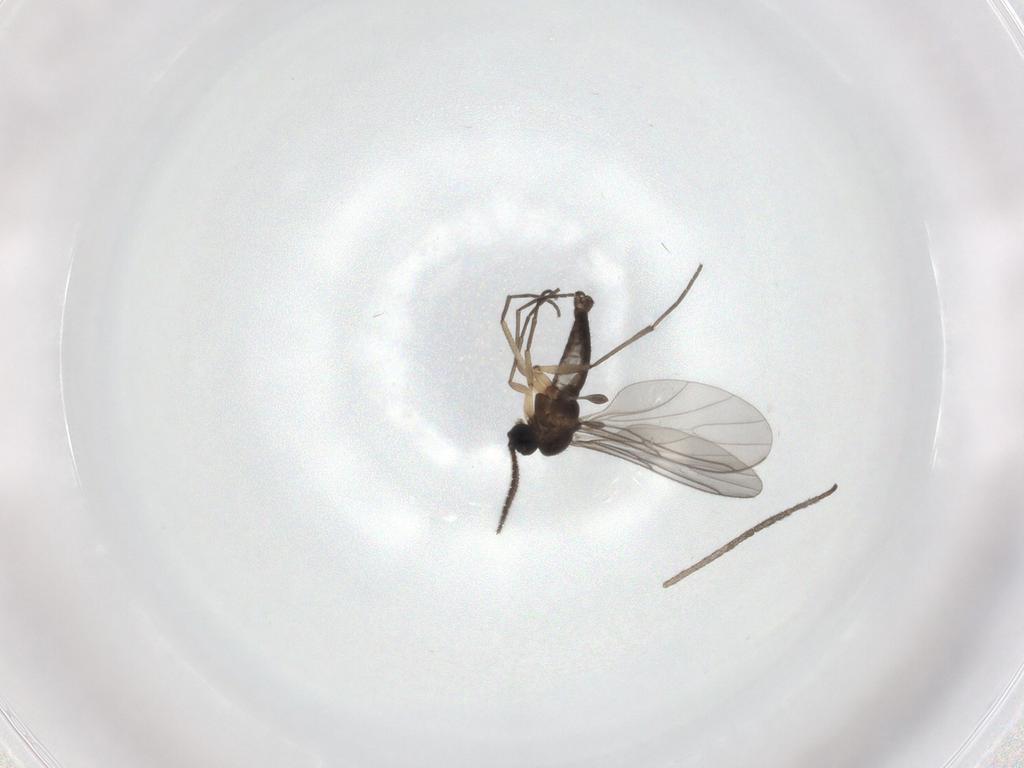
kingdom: Animalia
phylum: Arthropoda
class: Insecta
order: Diptera
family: Sciaridae
